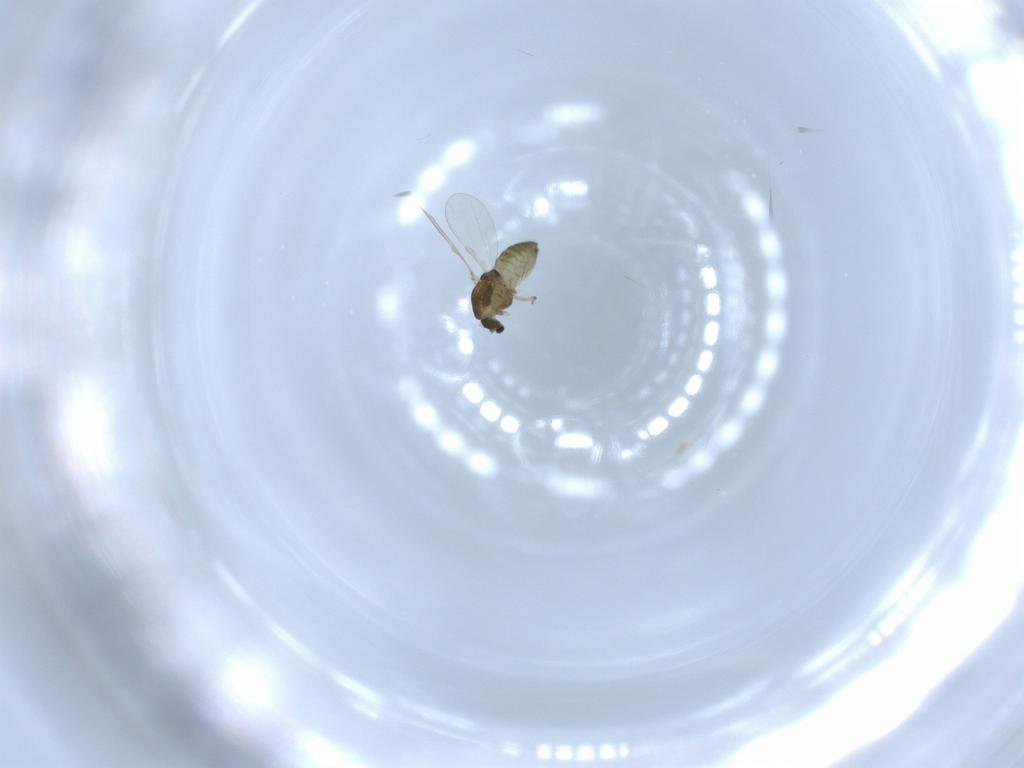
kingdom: Animalia
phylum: Arthropoda
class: Insecta
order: Diptera
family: Chironomidae
